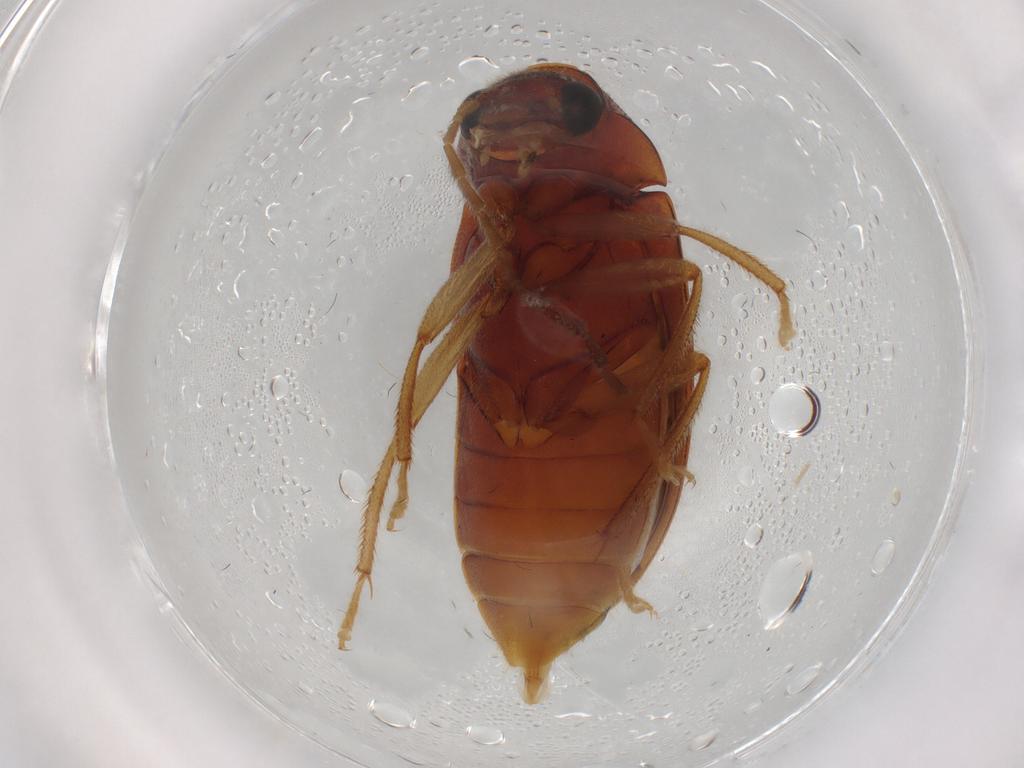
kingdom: Animalia
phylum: Arthropoda
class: Insecta
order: Coleoptera
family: Ptilodactylidae
